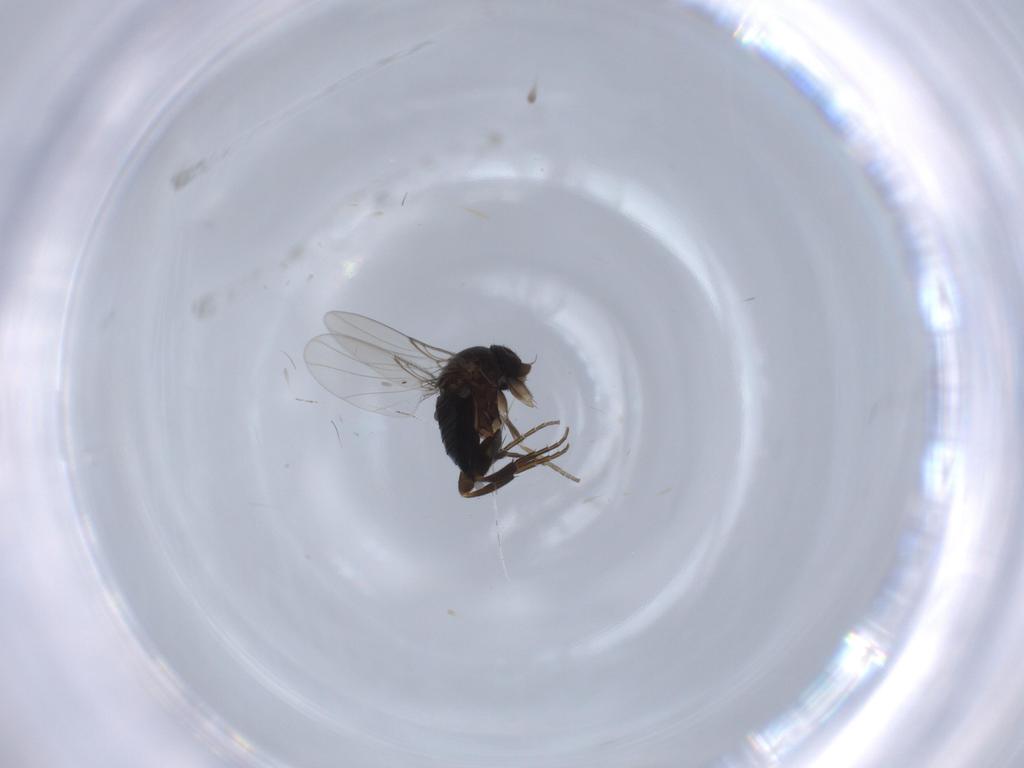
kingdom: Animalia
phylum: Arthropoda
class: Insecta
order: Diptera
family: Phoridae
